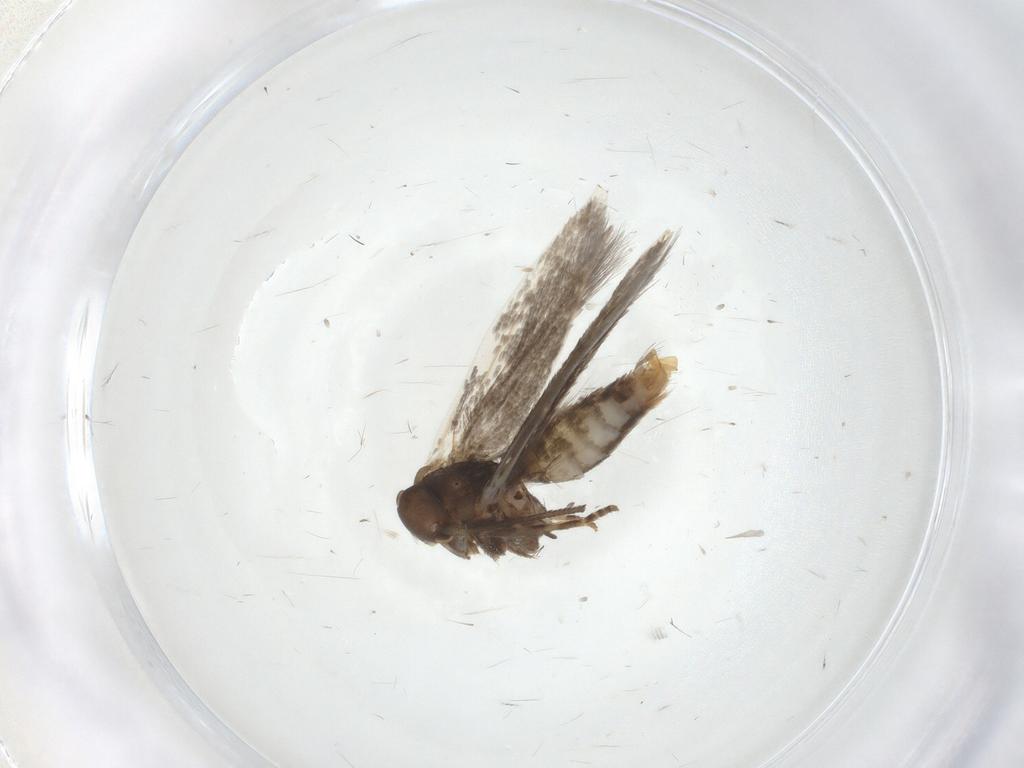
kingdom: Animalia
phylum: Arthropoda
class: Insecta
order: Lepidoptera
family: Elachistidae
